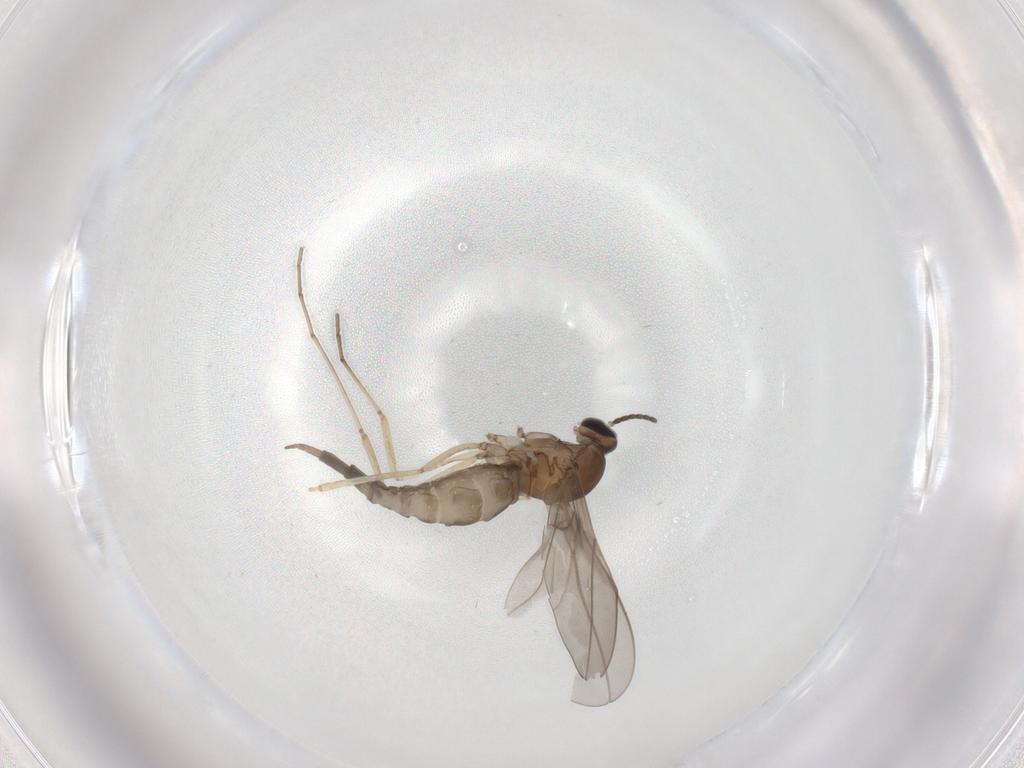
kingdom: Animalia
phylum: Arthropoda
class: Insecta
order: Diptera
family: Cecidomyiidae
